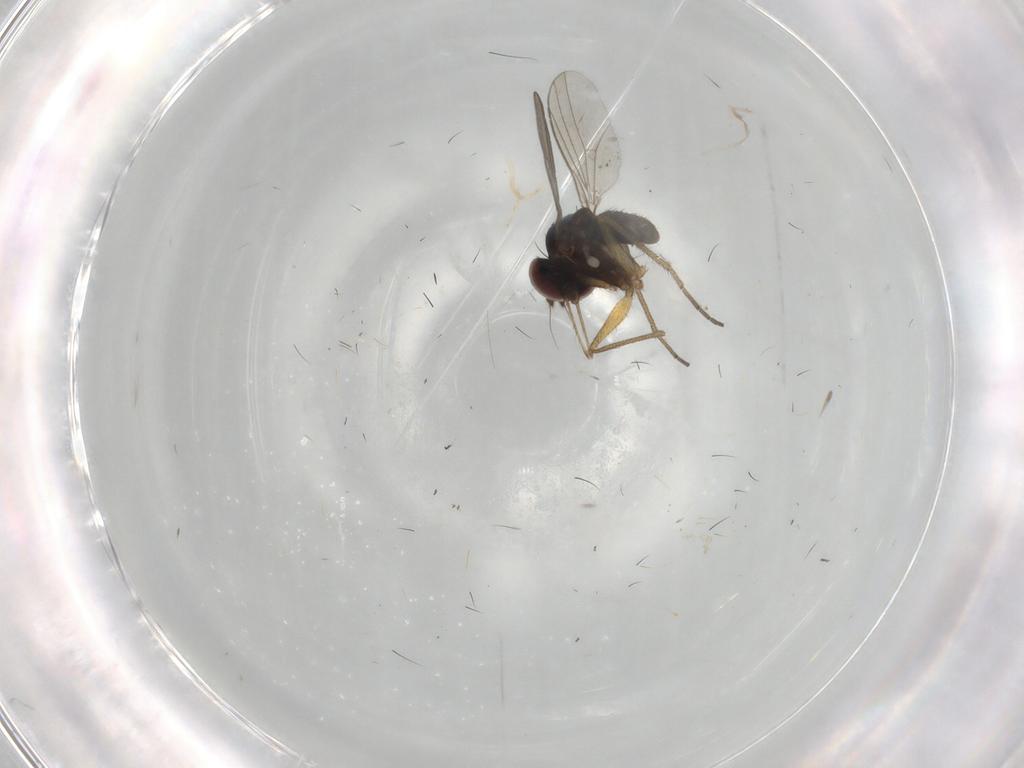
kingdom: Animalia
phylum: Arthropoda
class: Insecta
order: Diptera
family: Dolichopodidae
